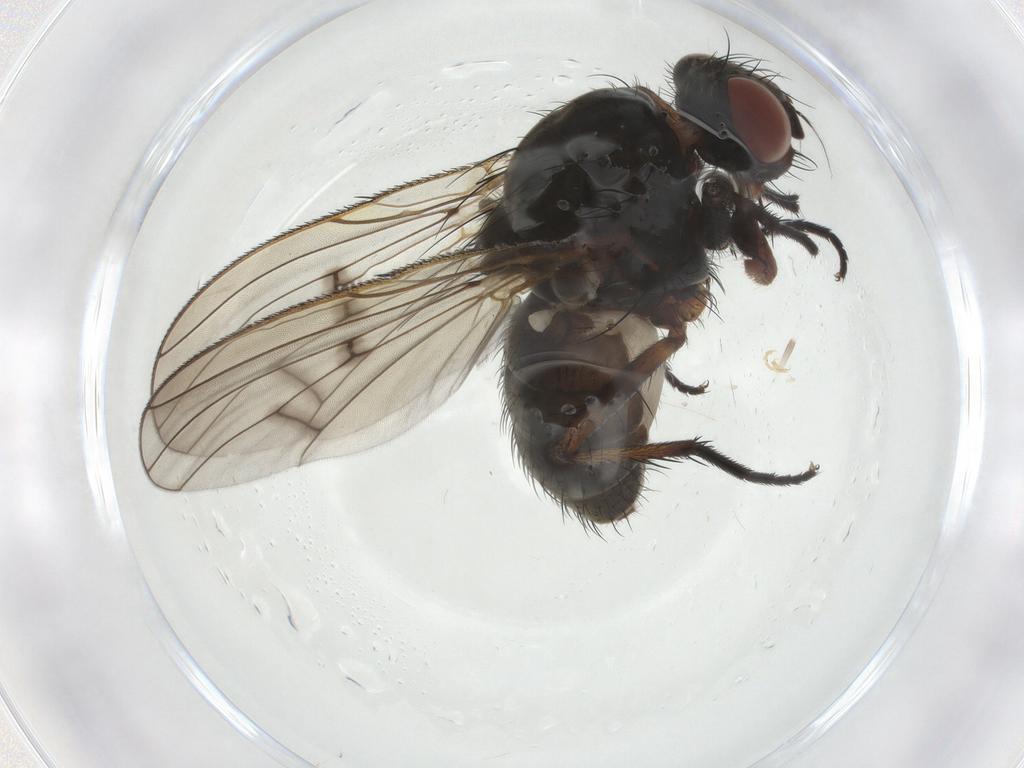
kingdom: Animalia
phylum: Arthropoda
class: Insecta
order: Diptera
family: Anthomyiidae
